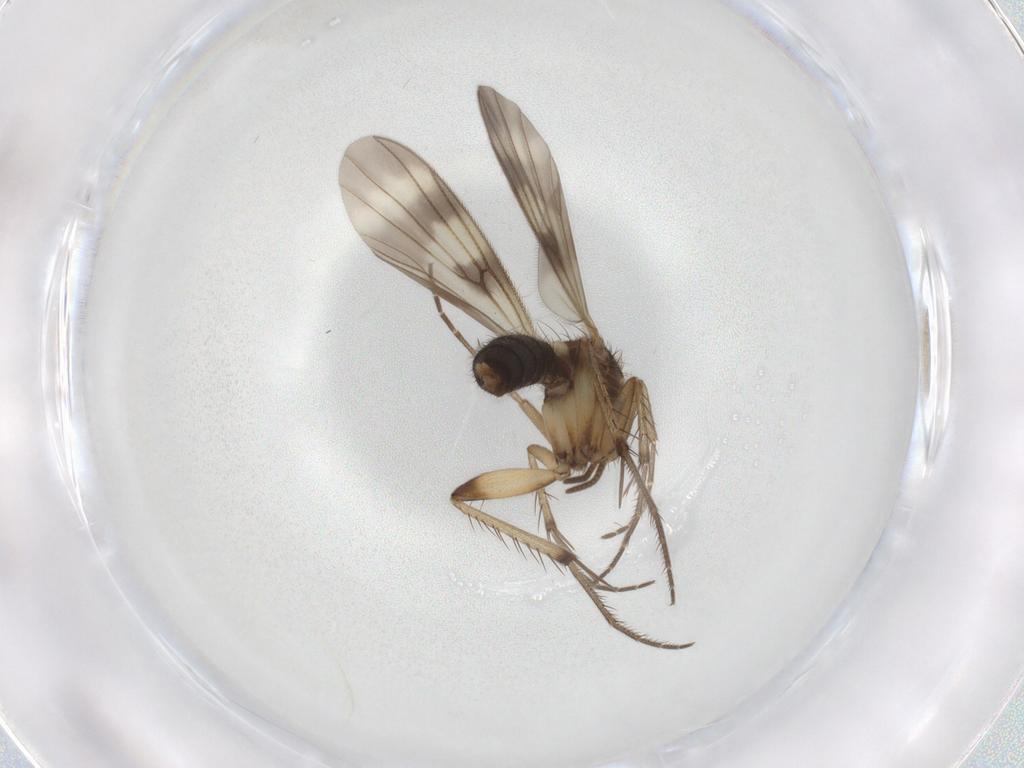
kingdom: Animalia
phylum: Arthropoda
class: Insecta
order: Diptera
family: Mycetophilidae
